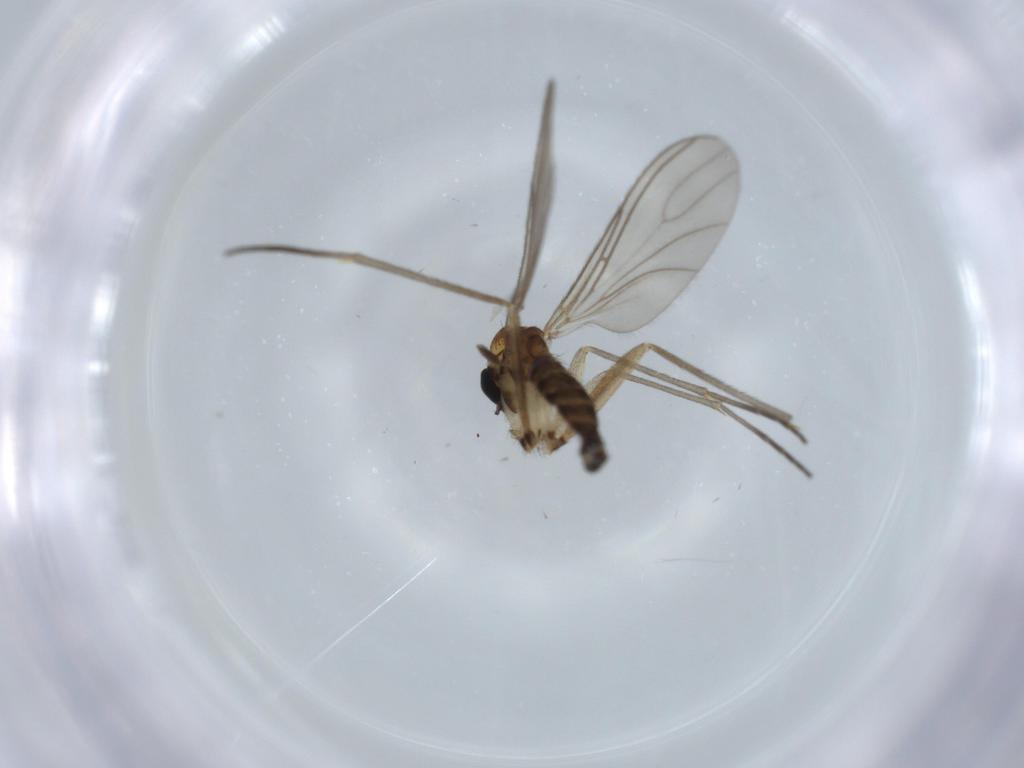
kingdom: Animalia
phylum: Arthropoda
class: Insecta
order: Diptera
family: Sciaridae
